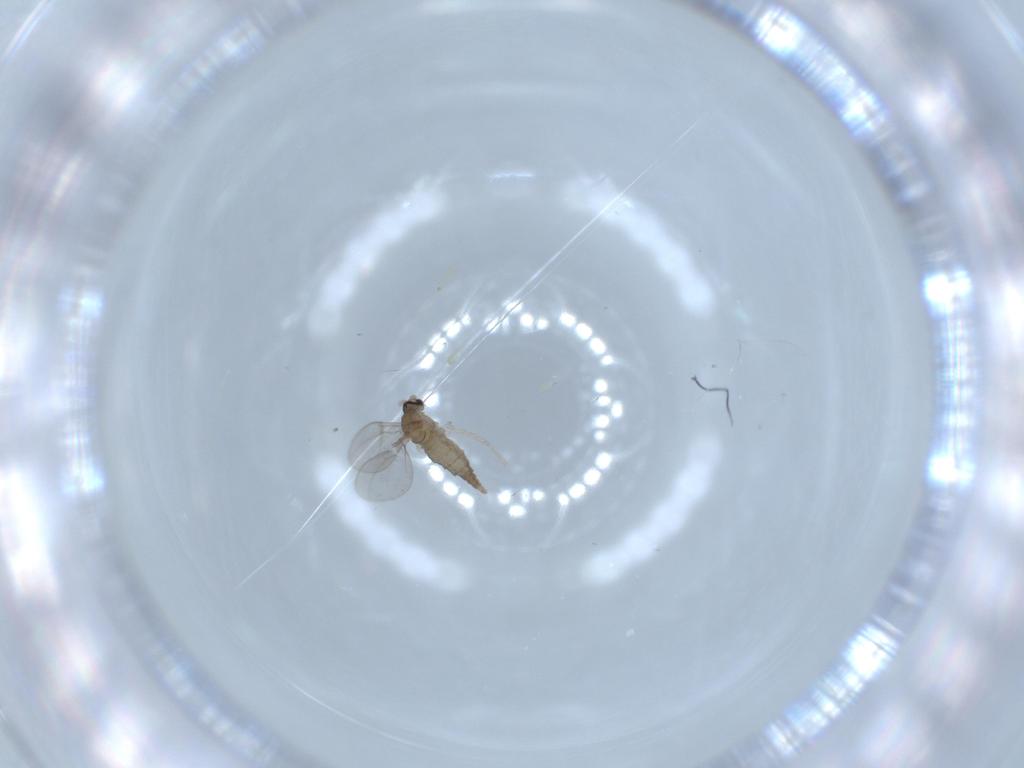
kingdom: Animalia
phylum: Arthropoda
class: Insecta
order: Diptera
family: Cecidomyiidae
